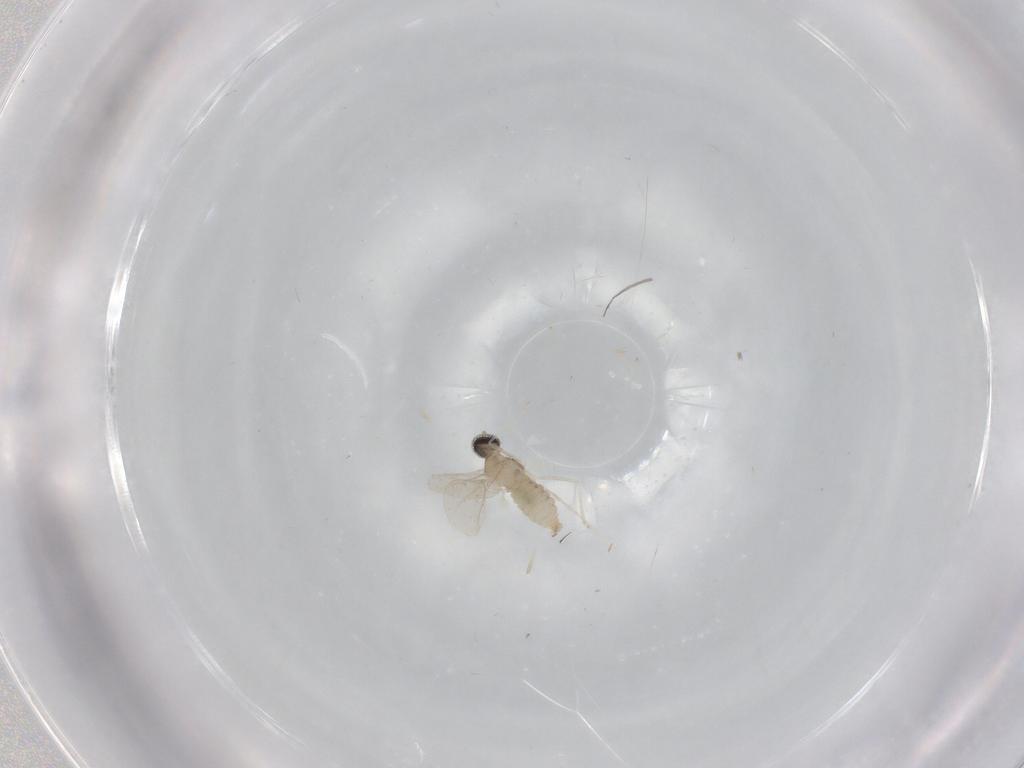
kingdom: Animalia
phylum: Arthropoda
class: Insecta
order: Diptera
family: Cecidomyiidae
